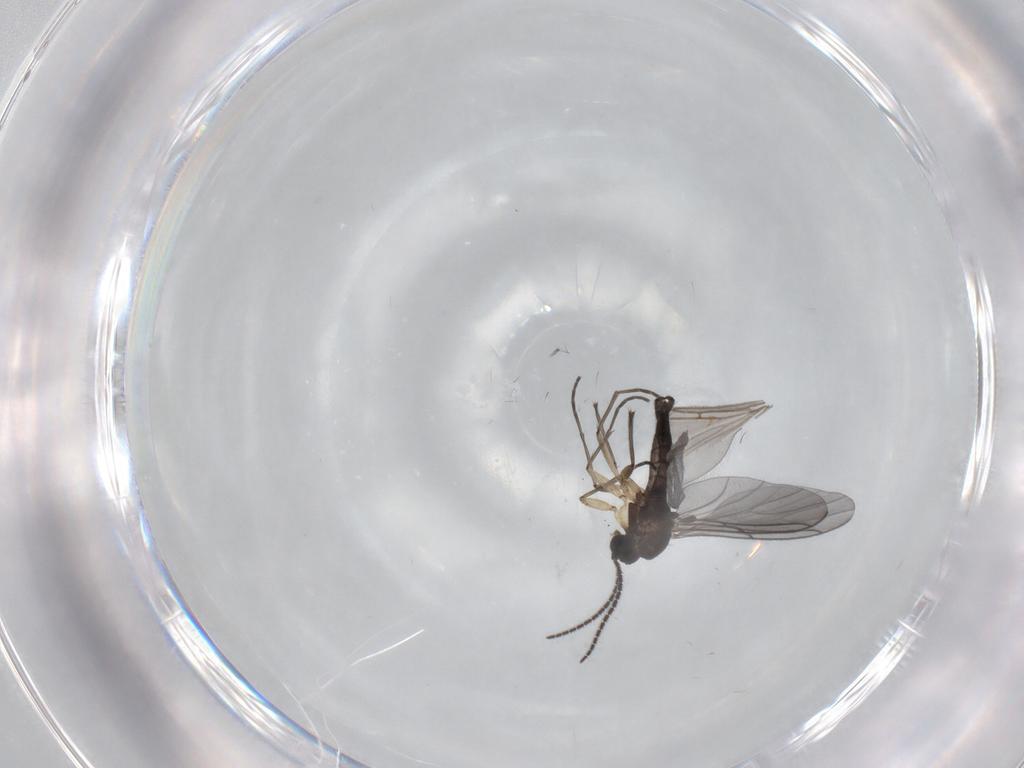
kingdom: Animalia
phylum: Arthropoda
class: Insecta
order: Diptera
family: Sciaridae
